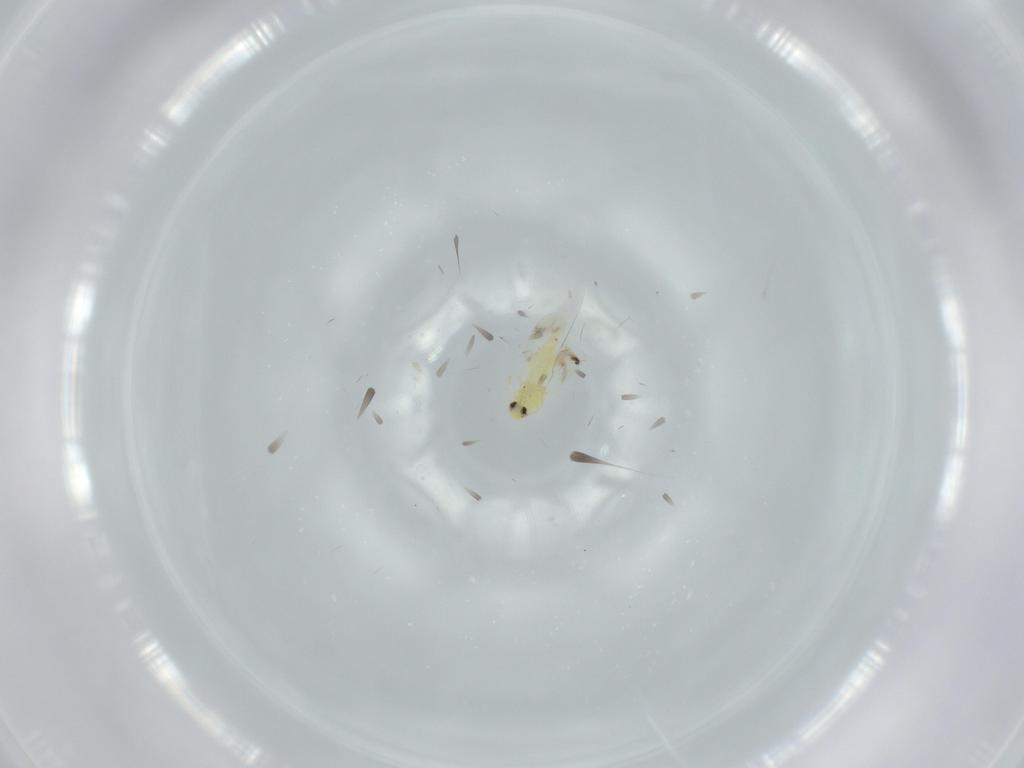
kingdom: Animalia
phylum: Arthropoda
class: Insecta
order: Hemiptera
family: Aleyrodidae
